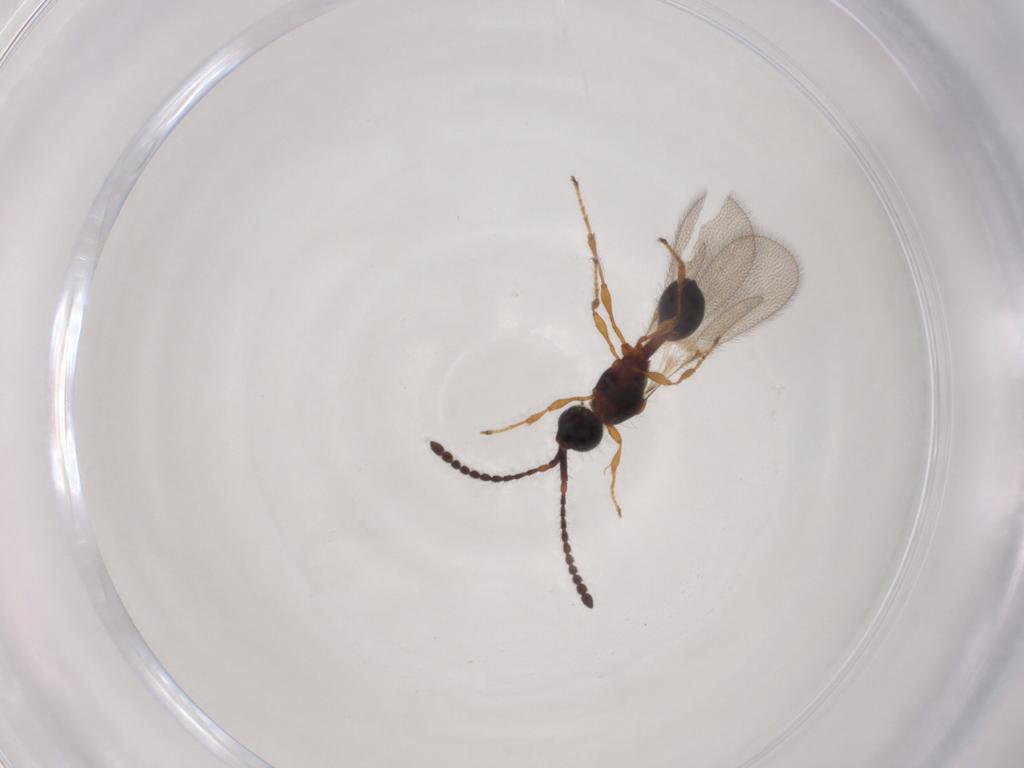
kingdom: Animalia
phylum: Arthropoda
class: Insecta
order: Hymenoptera
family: Diapriidae
